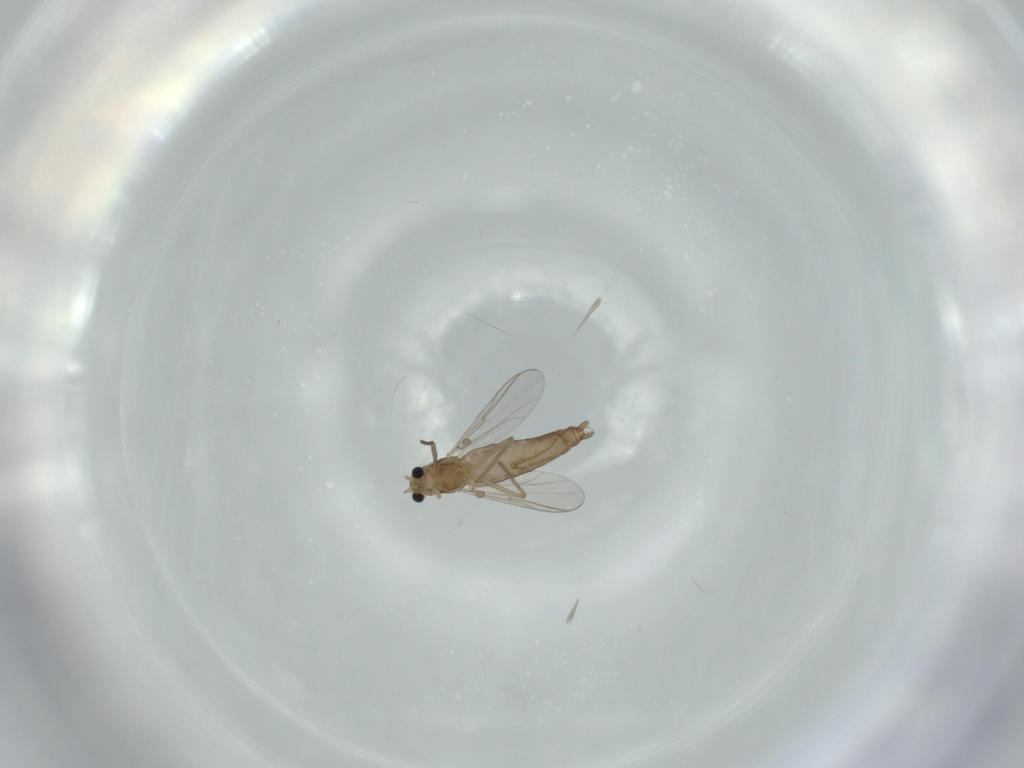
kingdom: Animalia
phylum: Arthropoda
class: Insecta
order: Diptera
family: Chironomidae
